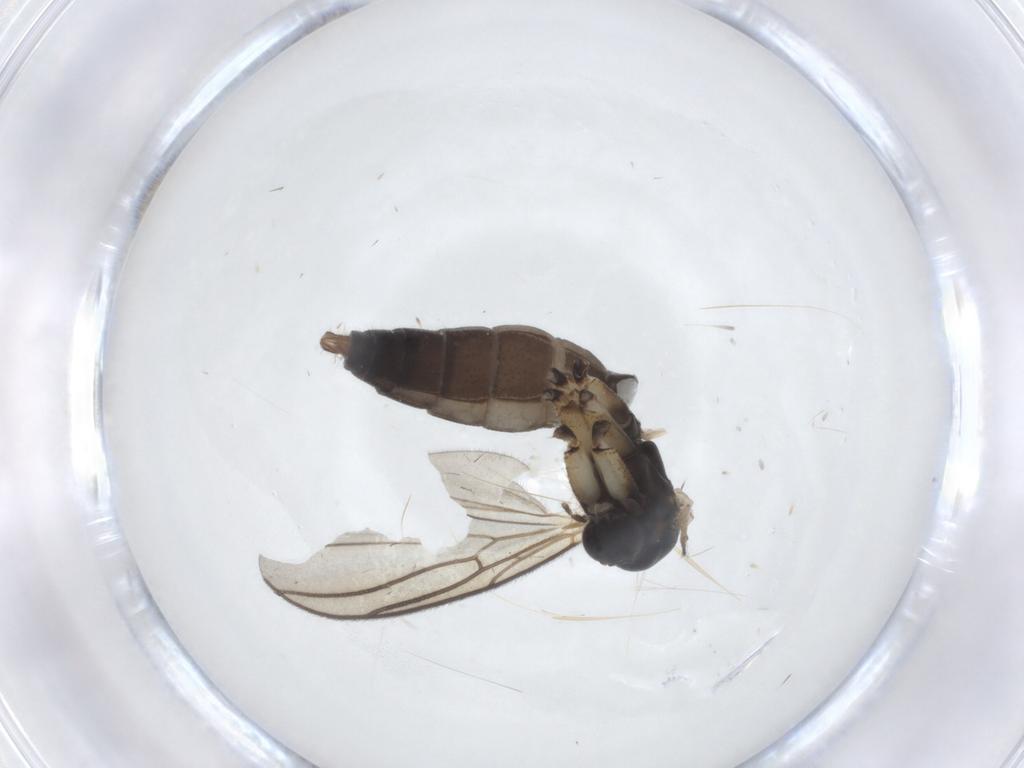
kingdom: Animalia
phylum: Arthropoda
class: Insecta
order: Diptera
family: Mycetophilidae
